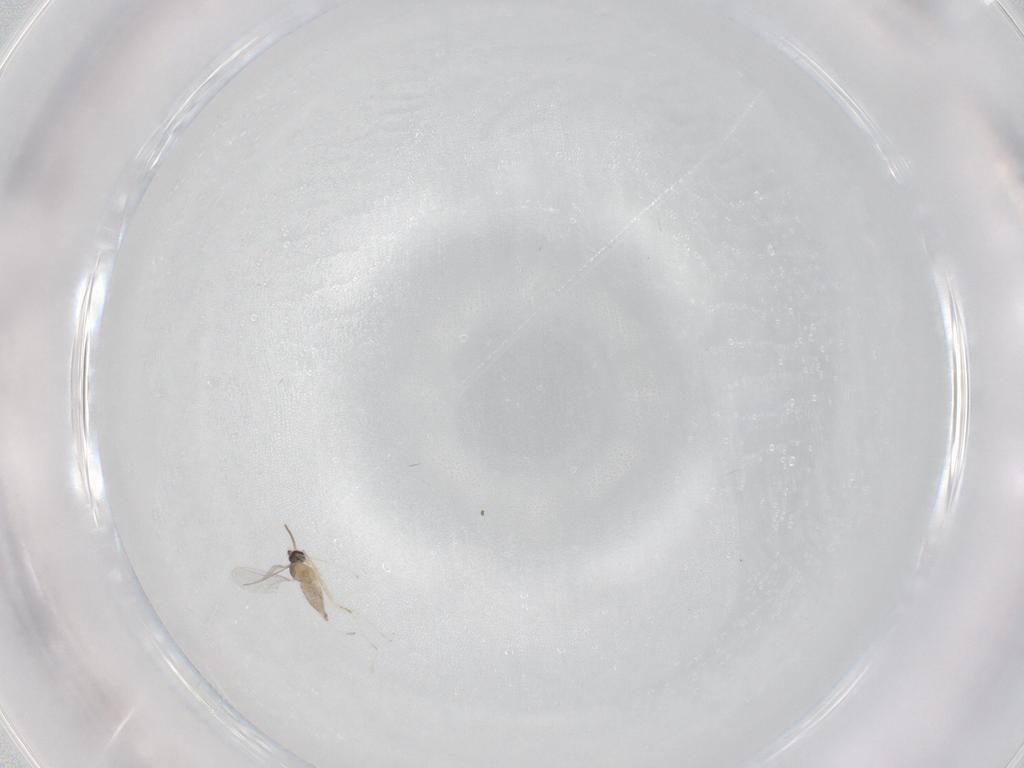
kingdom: Animalia
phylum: Arthropoda
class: Insecta
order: Diptera
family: Cecidomyiidae
